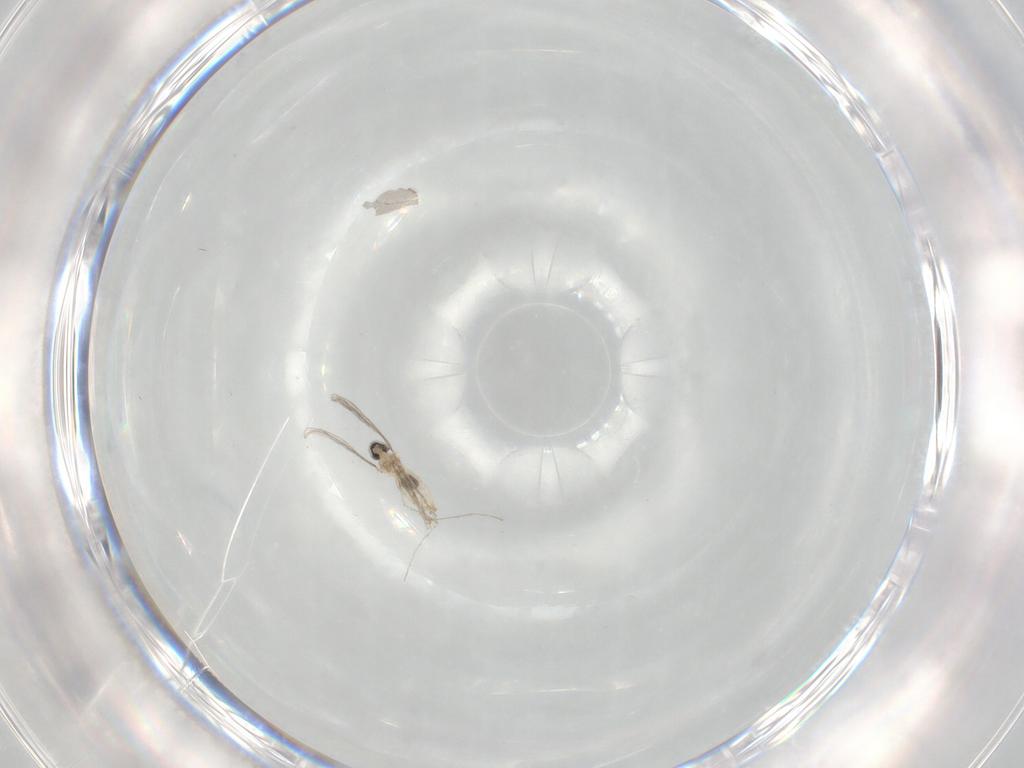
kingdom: Animalia
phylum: Arthropoda
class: Insecta
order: Diptera
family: Cecidomyiidae
